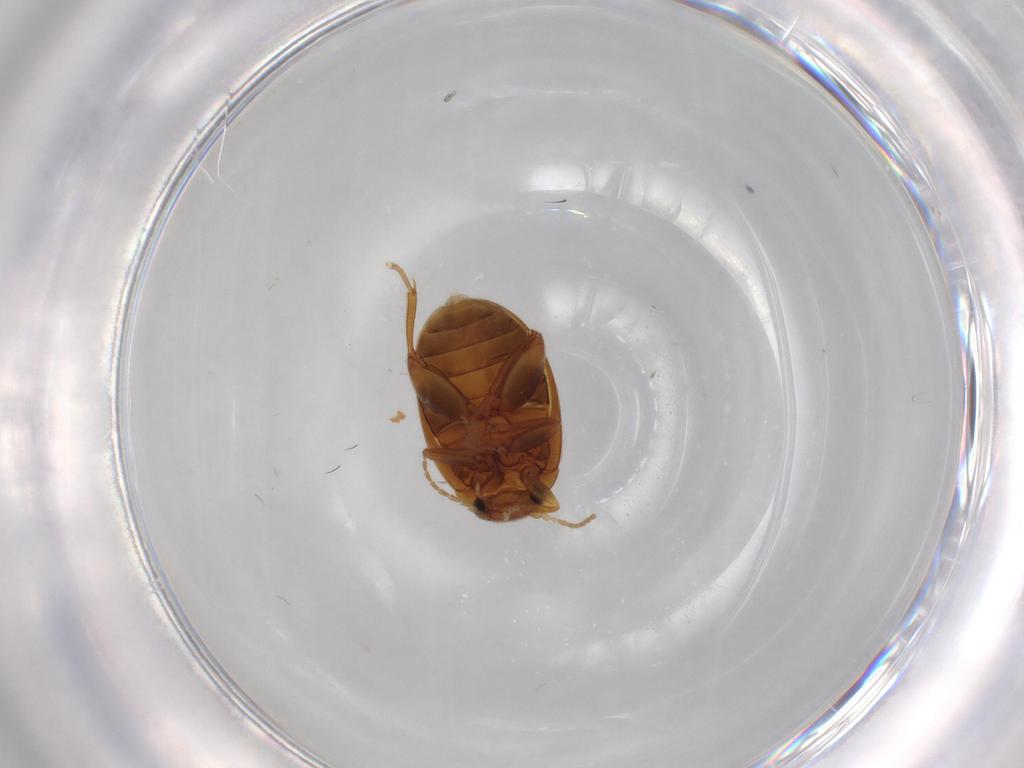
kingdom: Animalia
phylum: Arthropoda
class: Insecta
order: Coleoptera
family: Scirtidae
